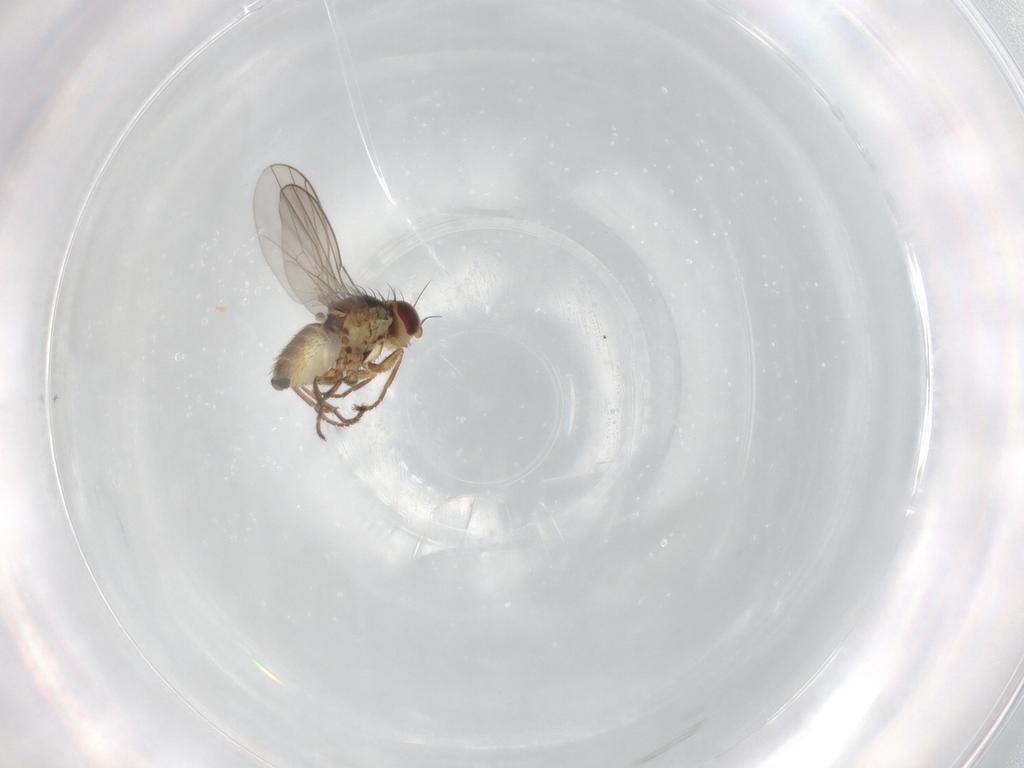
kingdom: Animalia
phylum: Arthropoda
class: Insecta
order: Diptera
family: Agromyzidae
